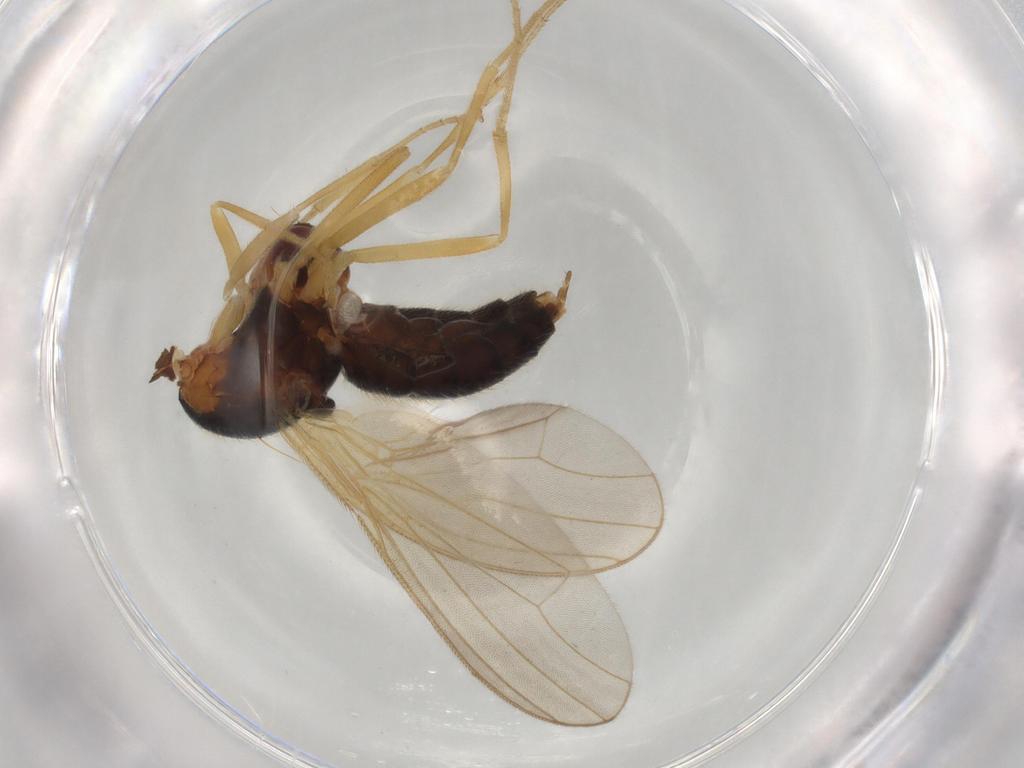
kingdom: Animalia
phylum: Arthropoda
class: Insecta
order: Diptera
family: Psilidae
